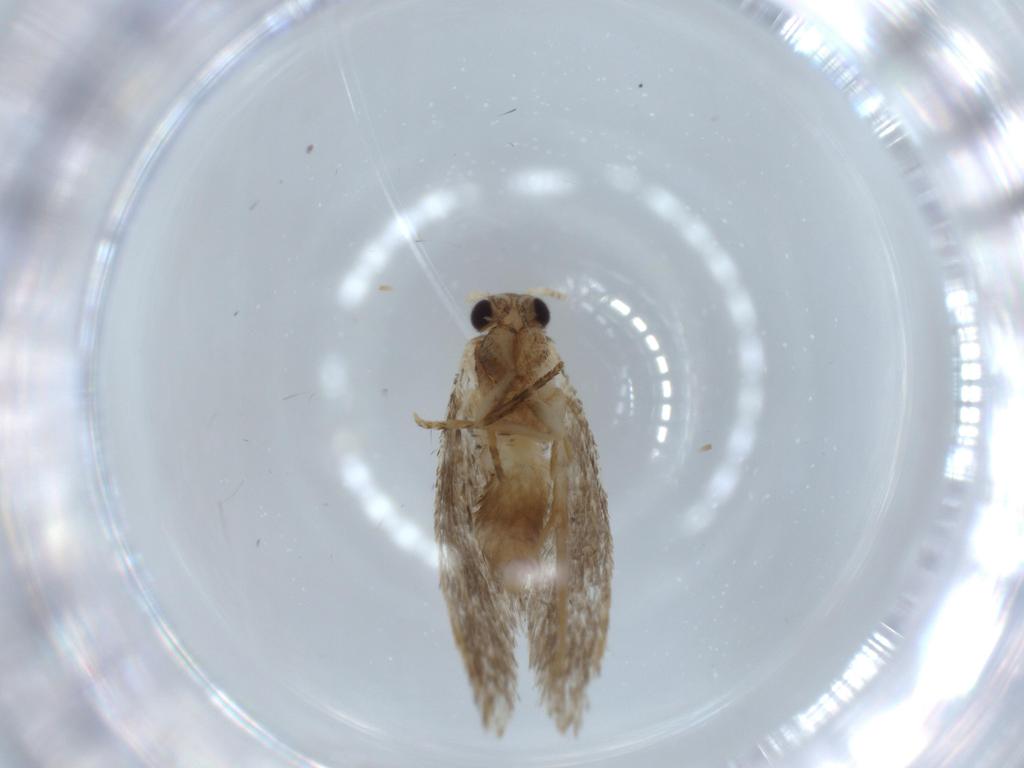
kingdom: Animalia
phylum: Arthropoda
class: Insecta
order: Lepidoptera
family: Tineidae
